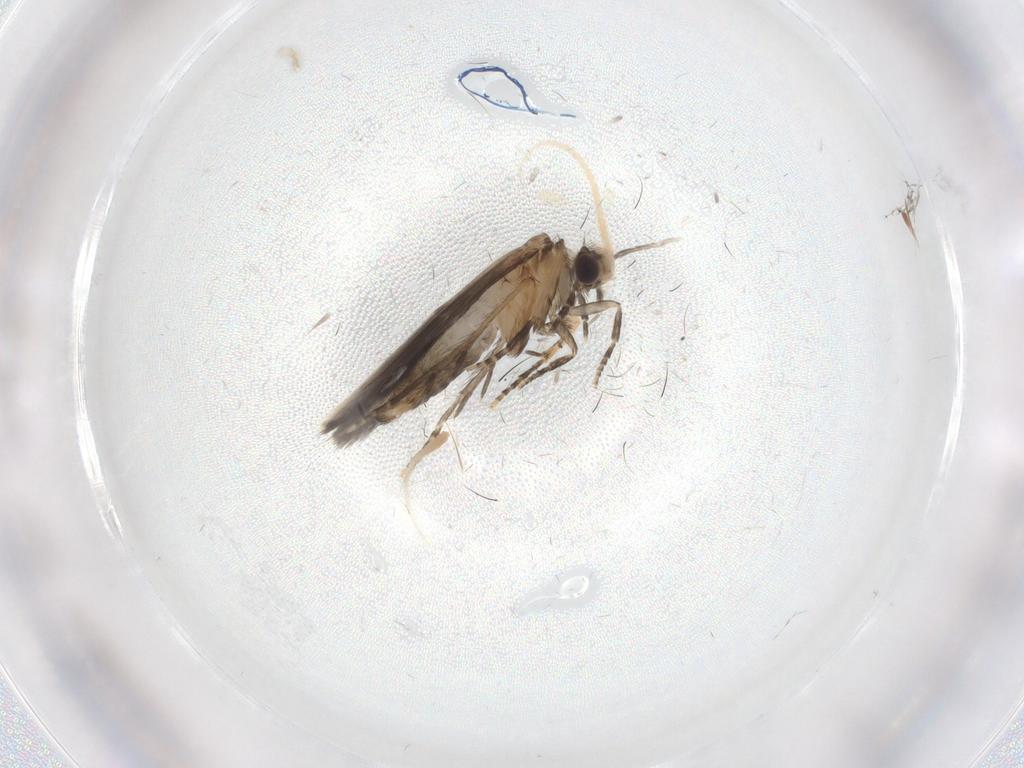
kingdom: Animalia
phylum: Arthropoda
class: Insecta
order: Trichoptera
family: Hydroptilidae
